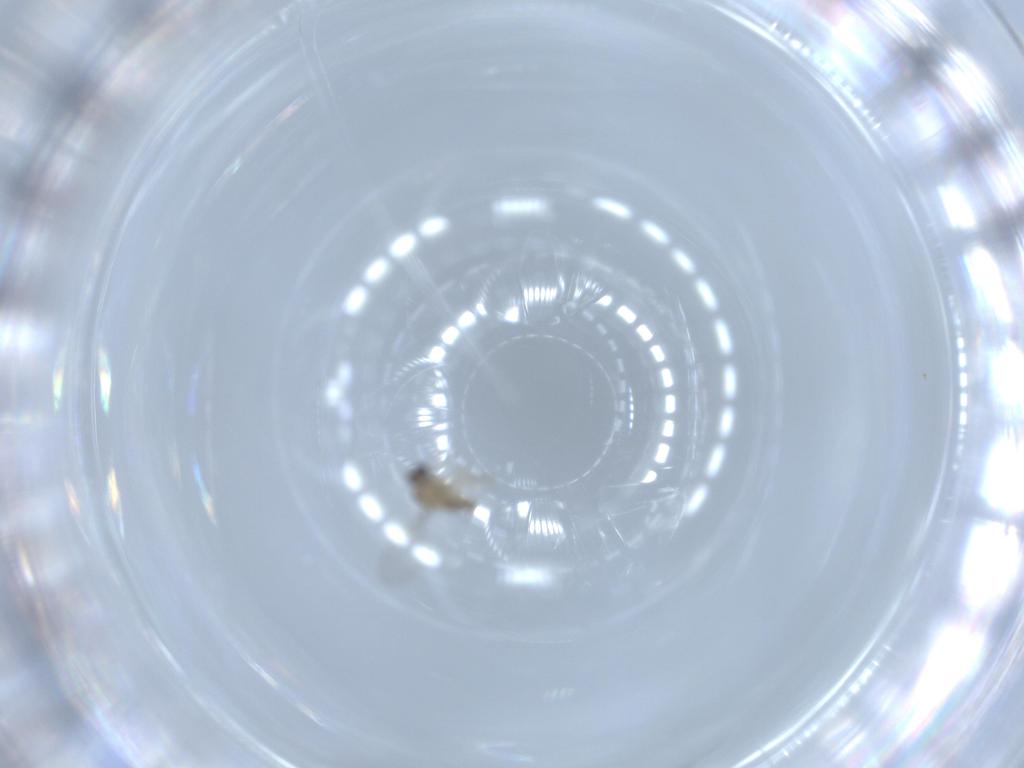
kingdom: Animalia
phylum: Arthropoda
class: Insecta
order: Diptera
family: Cecidomyiidae
